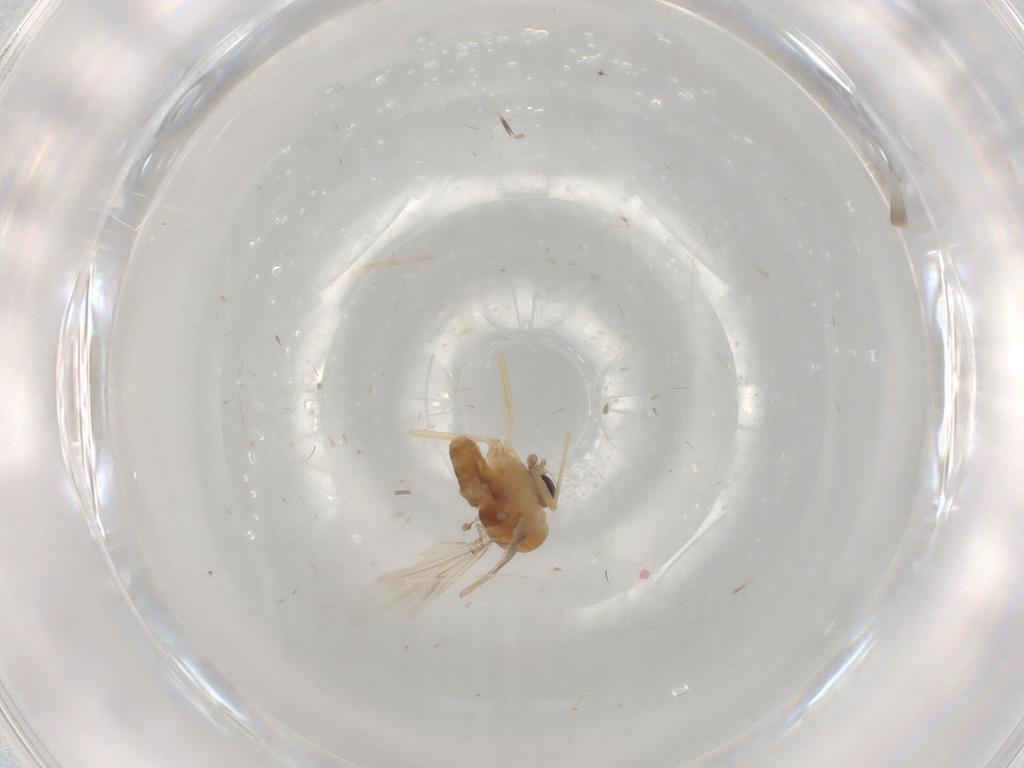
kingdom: Animalia
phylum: Arthropoda
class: Insecta
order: Diptera
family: Chironomidae
